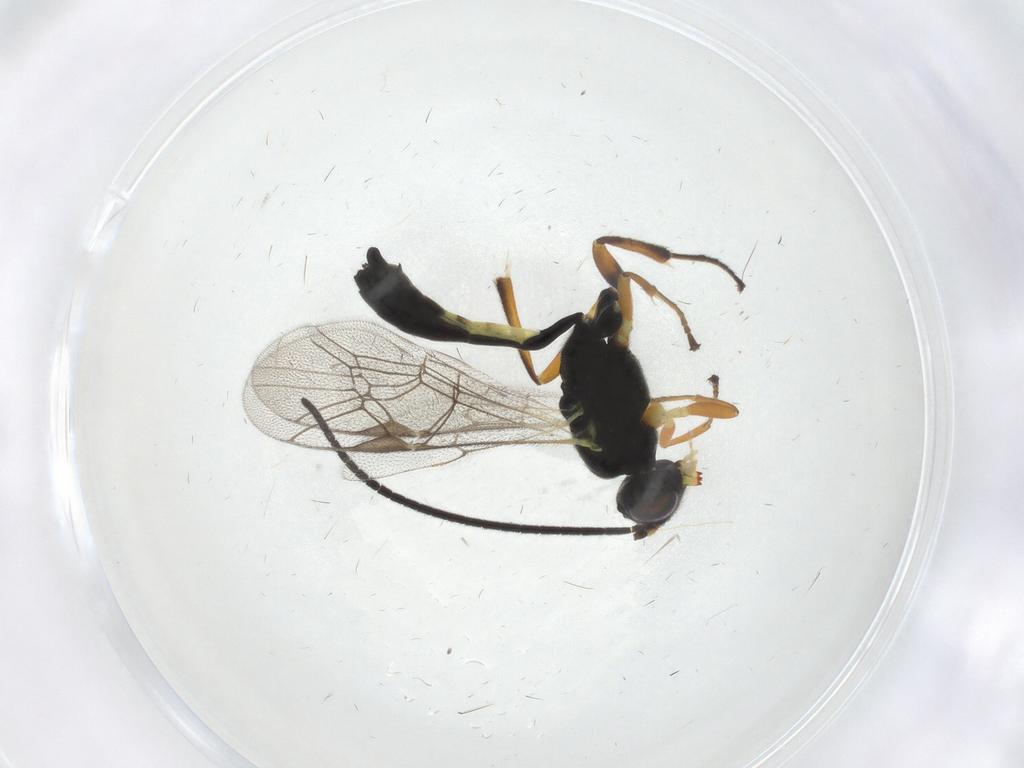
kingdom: Animalia
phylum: Arthropoda
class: Insecta
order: Hymenoptera
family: Ichneumonidae
